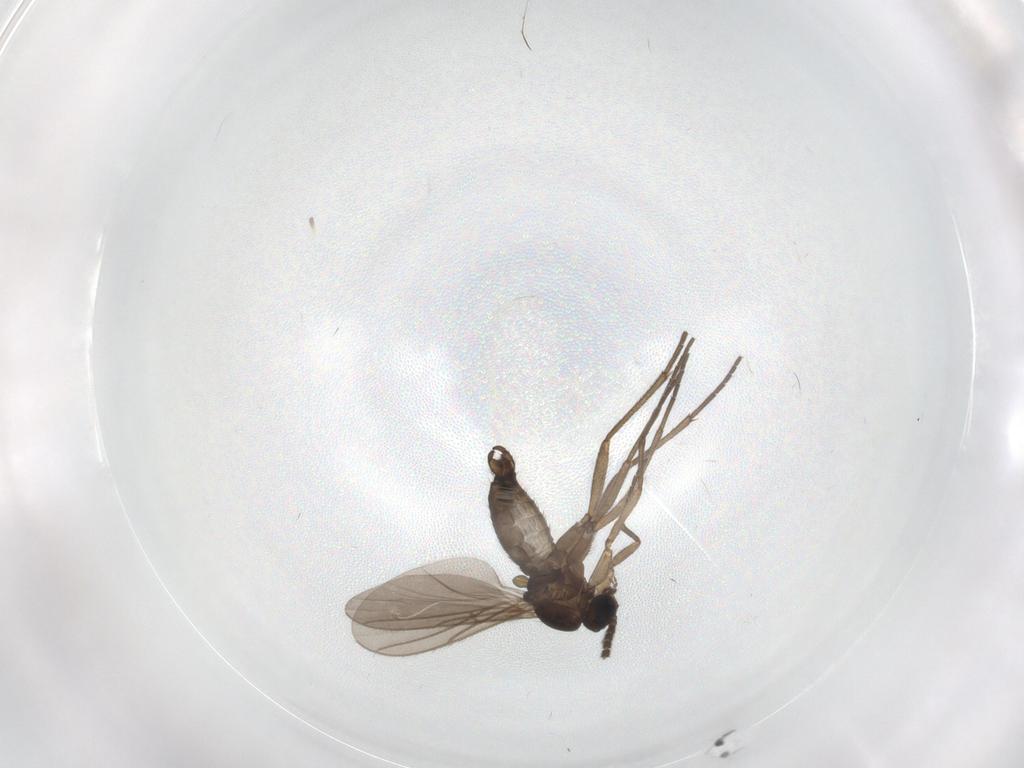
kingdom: Animalia
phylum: Arthropoda
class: Insecta
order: Diptera
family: Sciaridae
